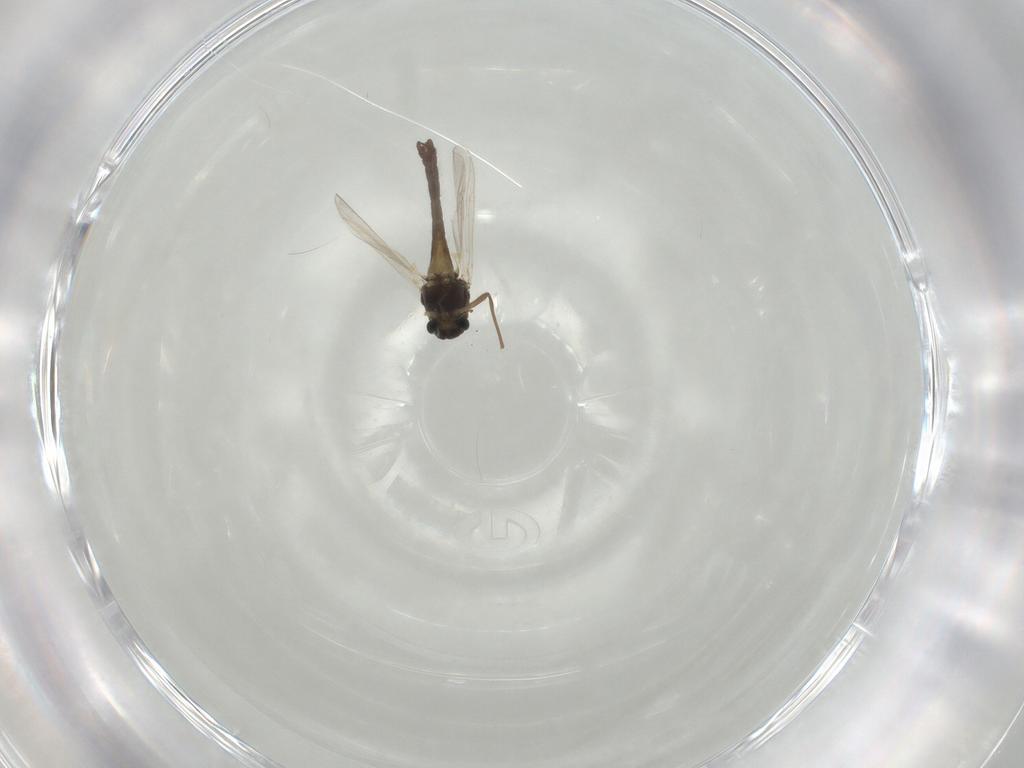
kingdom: Animalia
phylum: Arthropoda
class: Insecta
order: Diptera
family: Chironomidae
